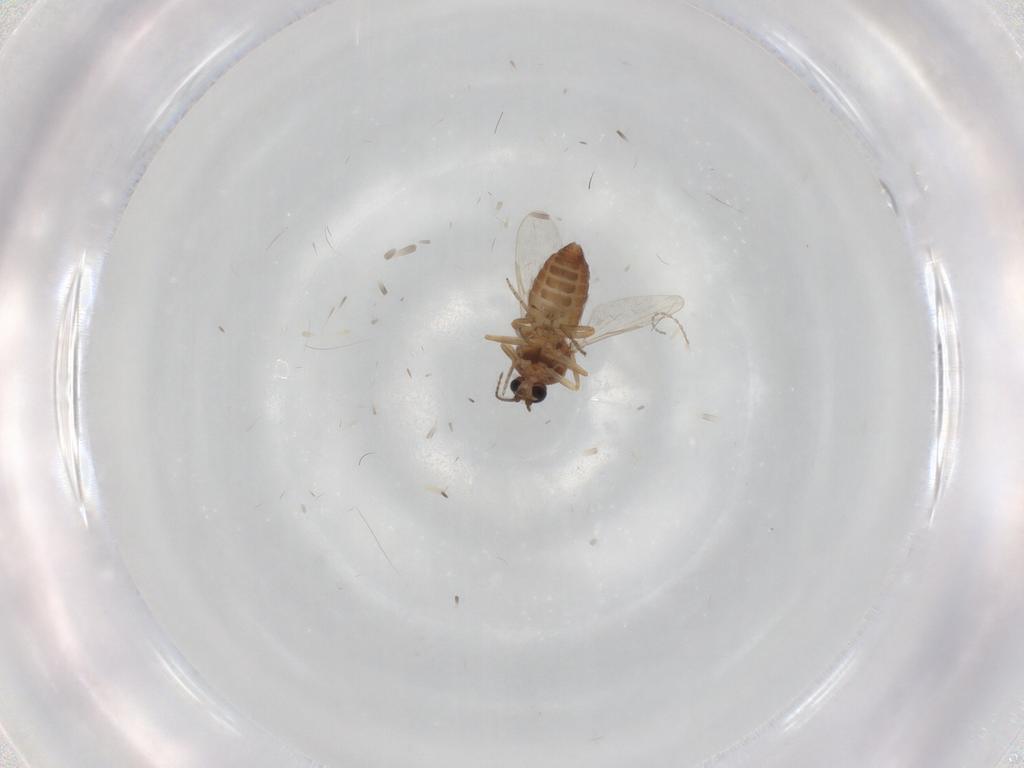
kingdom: Animalia
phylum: Arthropoda
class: Insecta
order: Diptera
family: Ceratopogonidae
